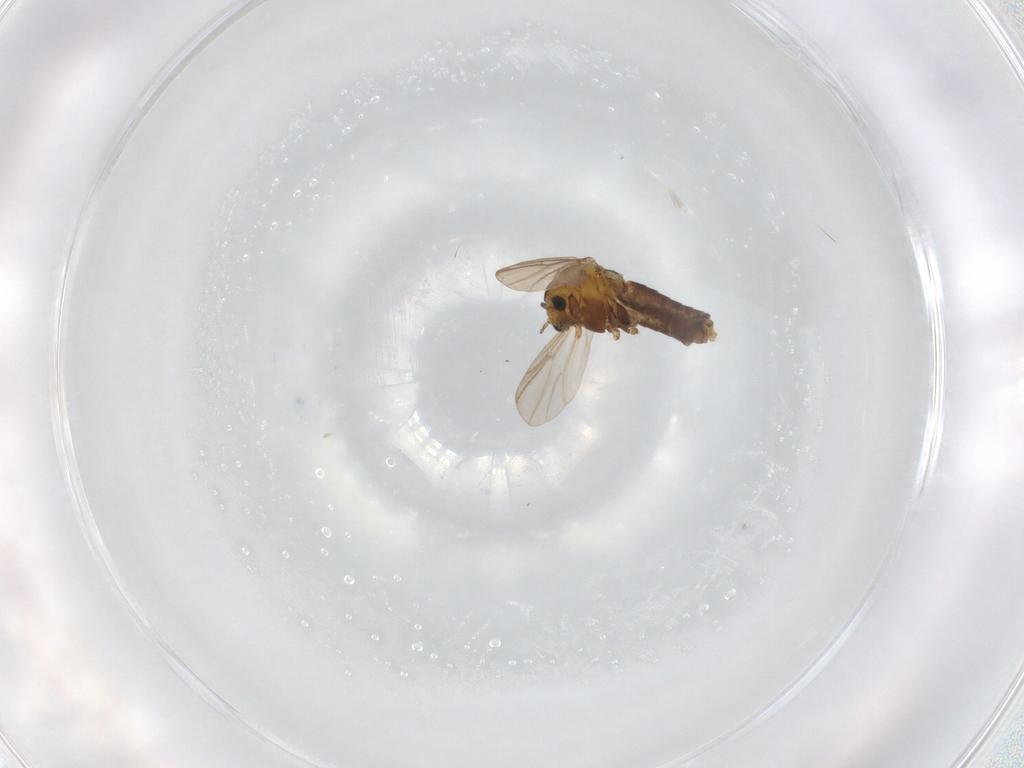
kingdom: Animalia
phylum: Arthropoda
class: Insecta
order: Diptera
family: Chironomidae
